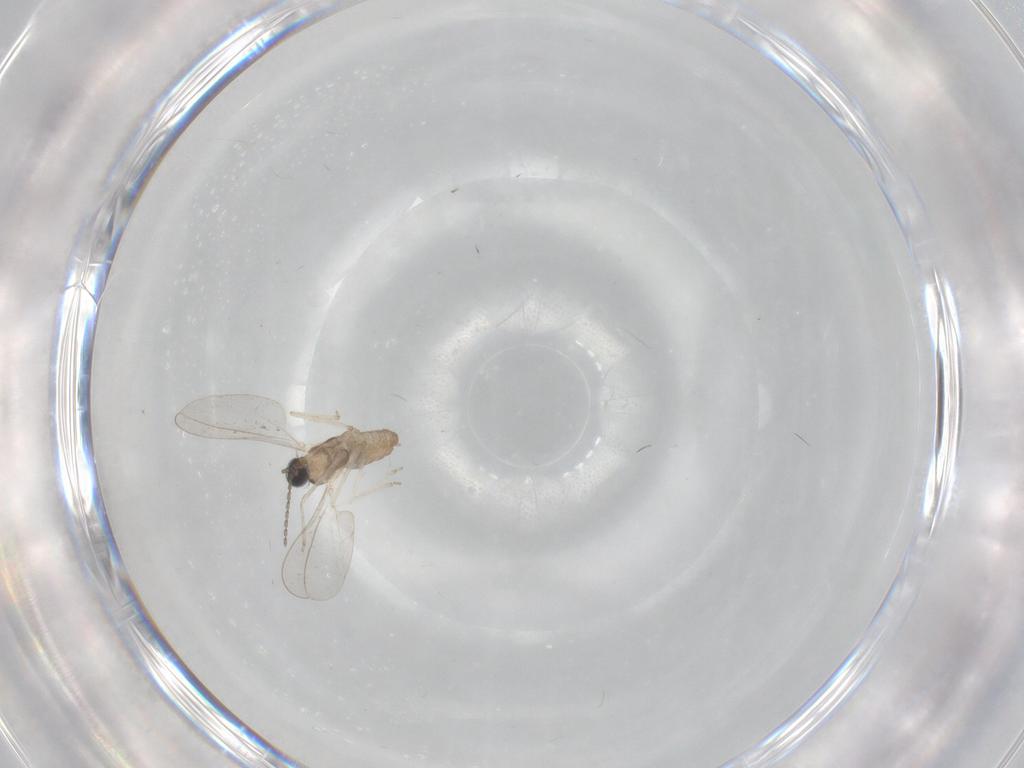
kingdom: Animalia
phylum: Arthropoda
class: Insecta
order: Diptera
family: Cecidomyiidae
